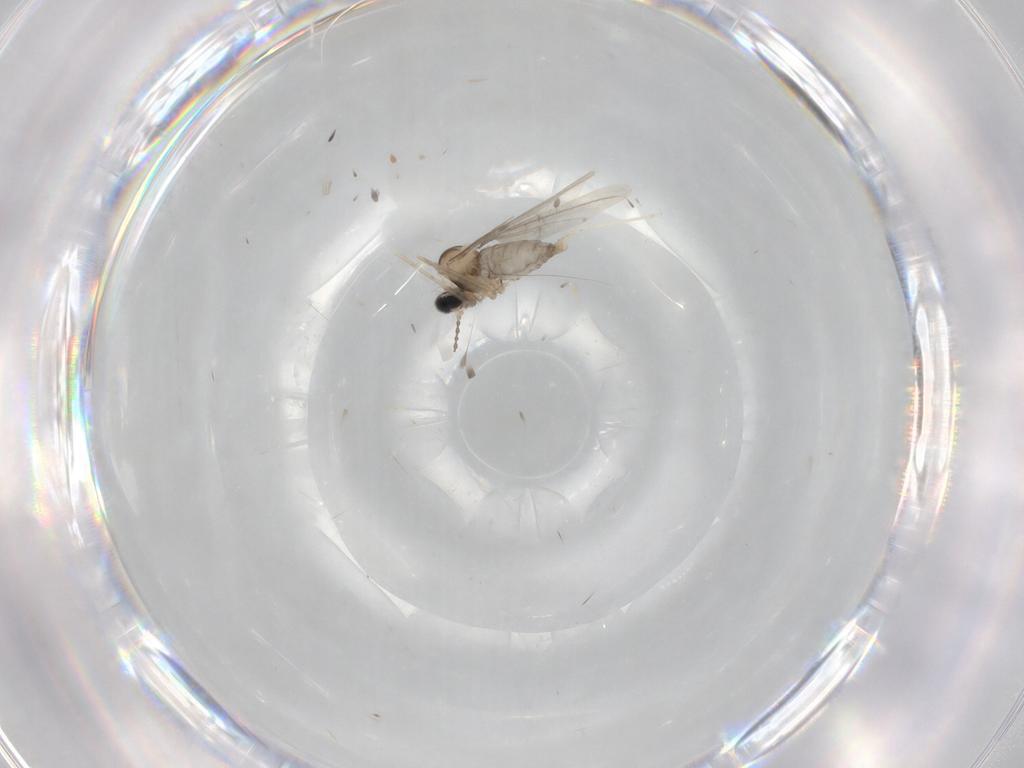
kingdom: Animalia
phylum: Arthropoda
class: Insecta
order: Diptera
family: Cecidomyiidae
